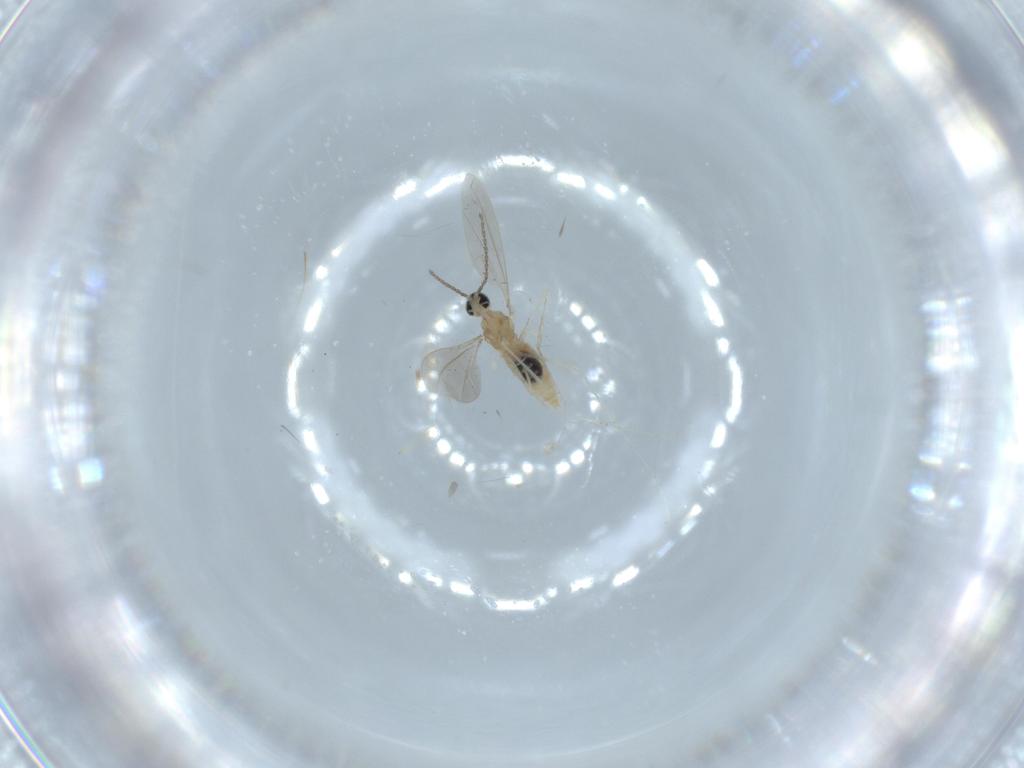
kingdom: Animalia
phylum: Arthropoda
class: Insecta
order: Diptera
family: Cecidomyiidae
